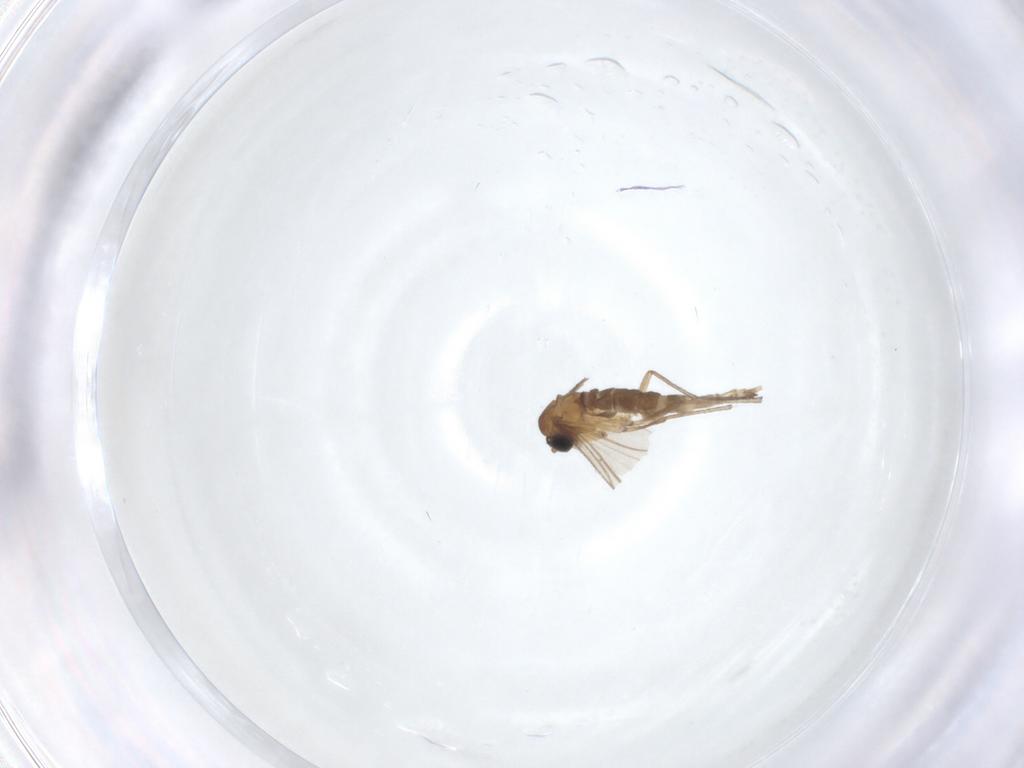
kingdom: Animalia
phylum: Arthropoda
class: Insecta
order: Diptera
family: Sciaridae
